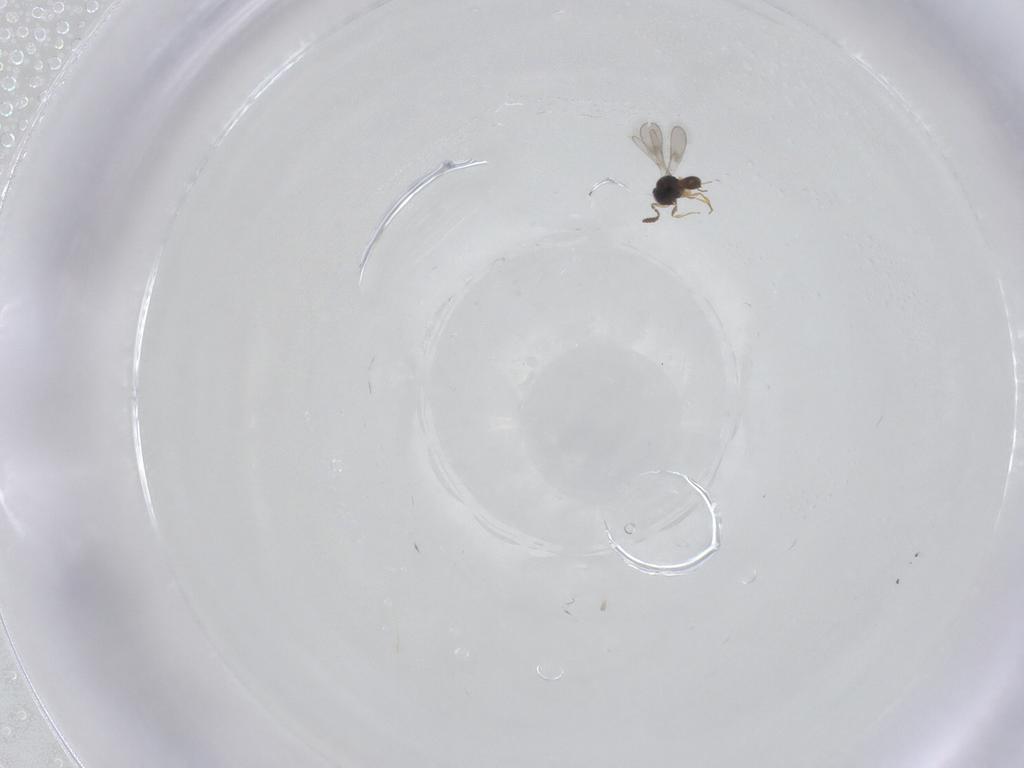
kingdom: Animalia
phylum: Arthropoda
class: Insecta
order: Hymenoptera
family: Scelionidae
